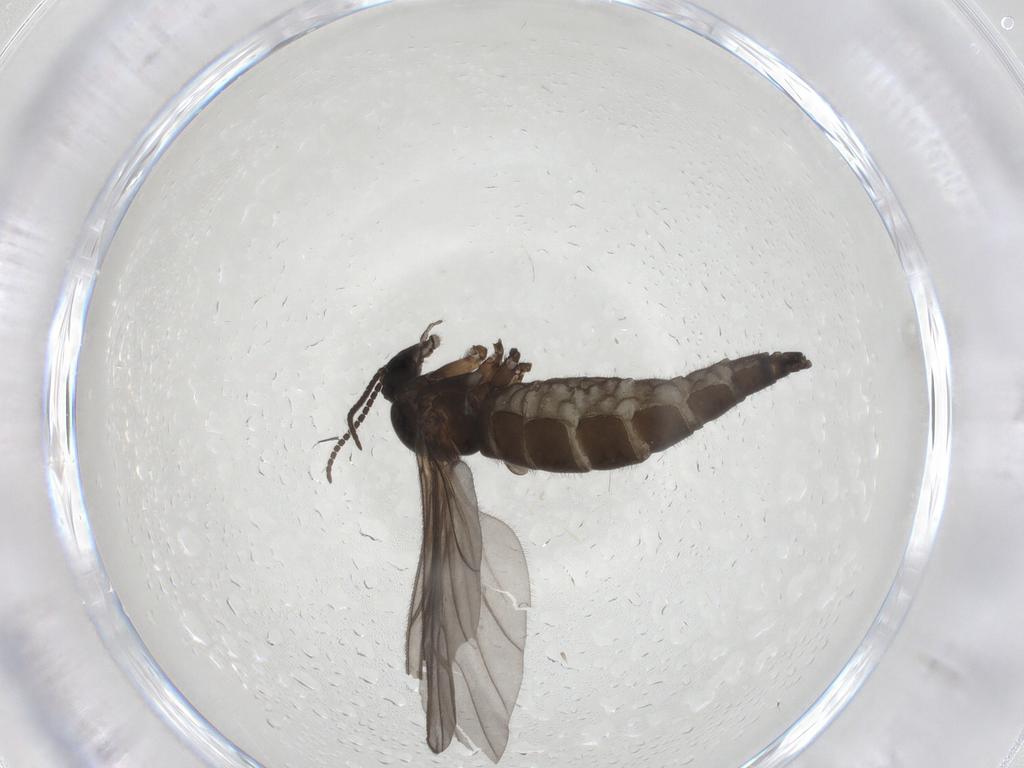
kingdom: Animalia
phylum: Arthropoda
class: Insecta
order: Diptera
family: Sciaridae
